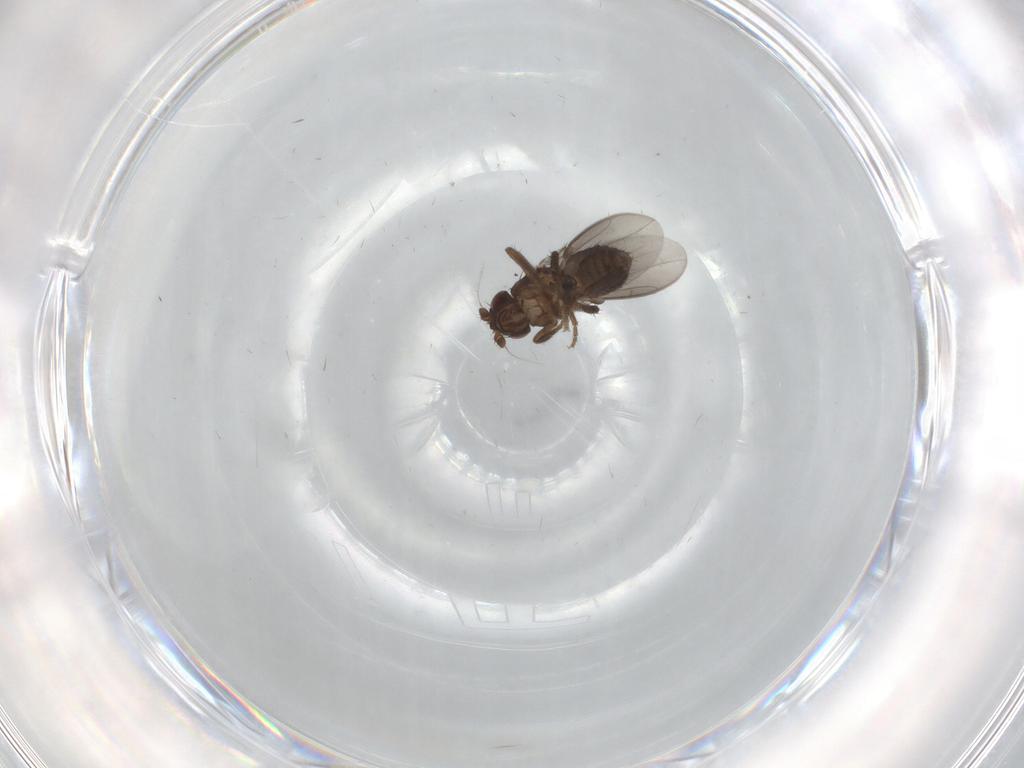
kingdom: Animalia
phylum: Arthropoda
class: Insecta
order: Diptera
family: Sphaeroceridae
